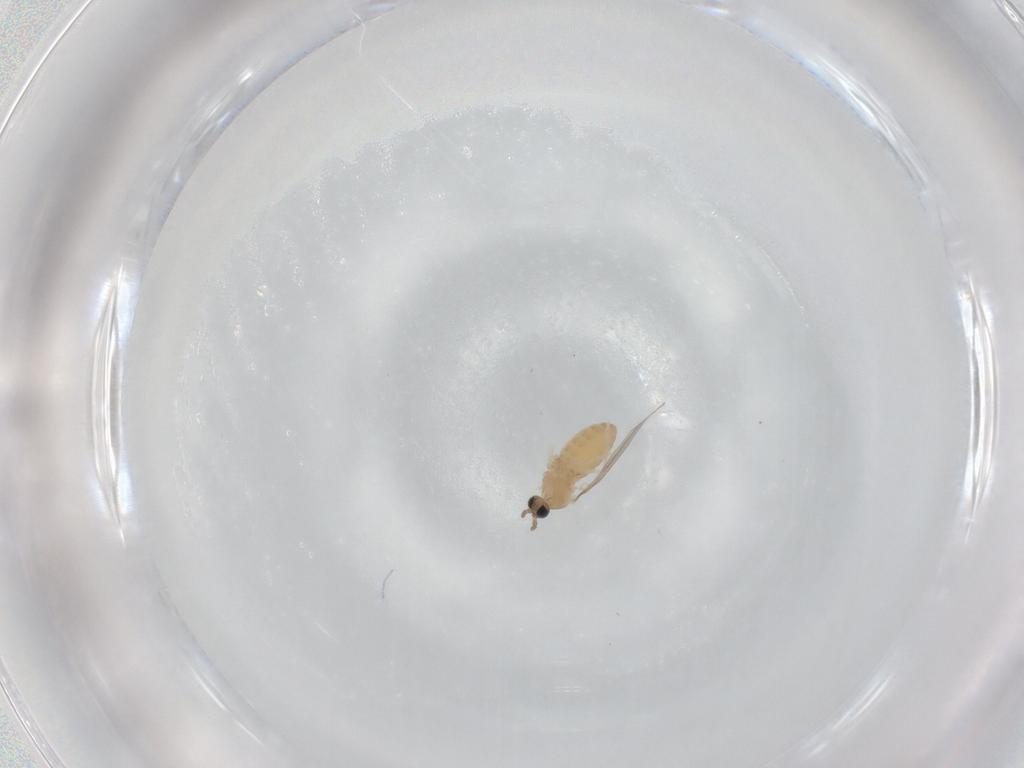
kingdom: Animalia
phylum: Arthropoda
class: Insecta
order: Diptera
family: Cecidomyiidae
